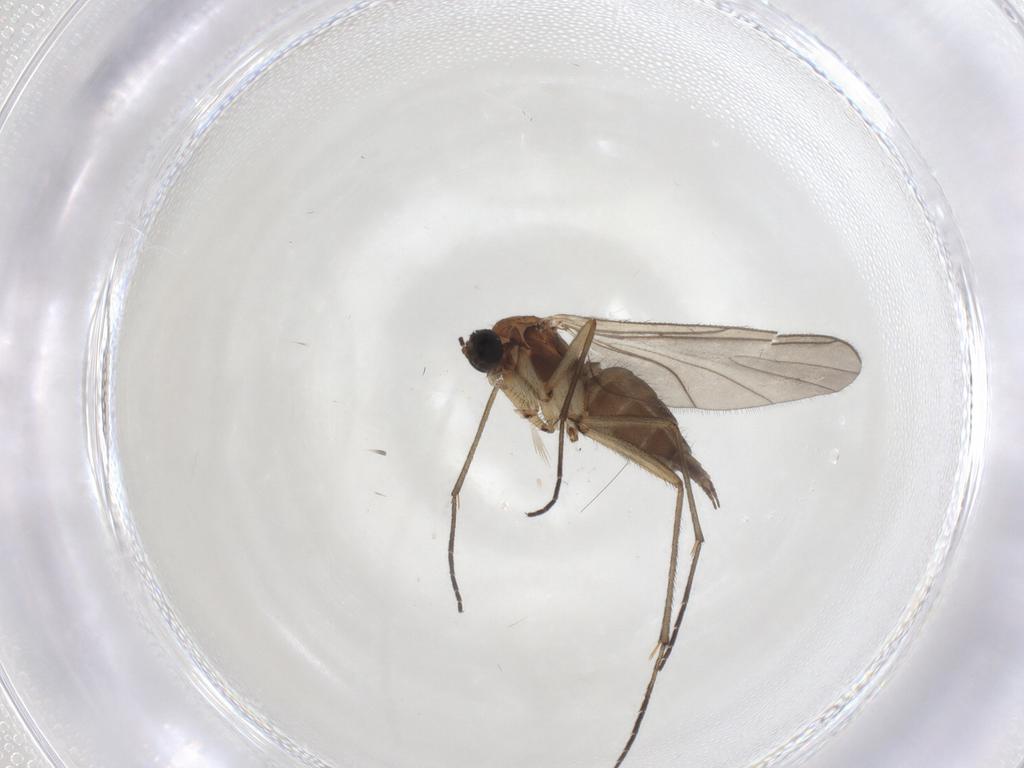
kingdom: Animalia
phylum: Arthropoda
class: Insecta
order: Diptera
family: Sciaridae
